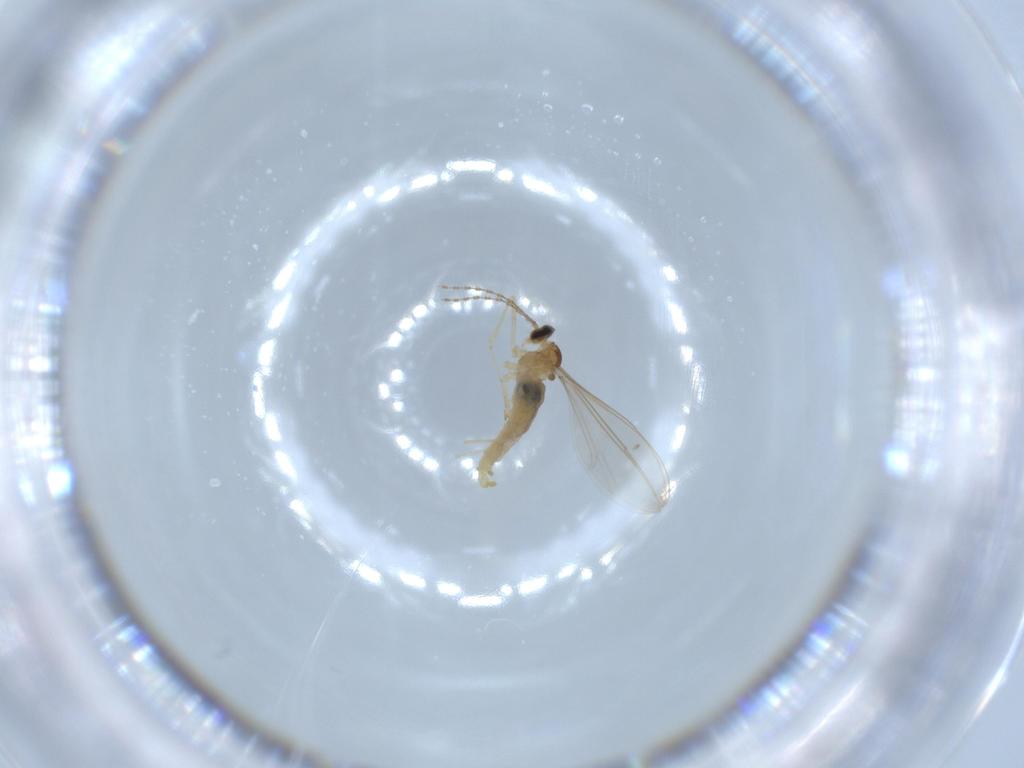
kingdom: Animalia
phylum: Arthropoda
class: Insecta
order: Diptera
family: Cecidomyiidae
